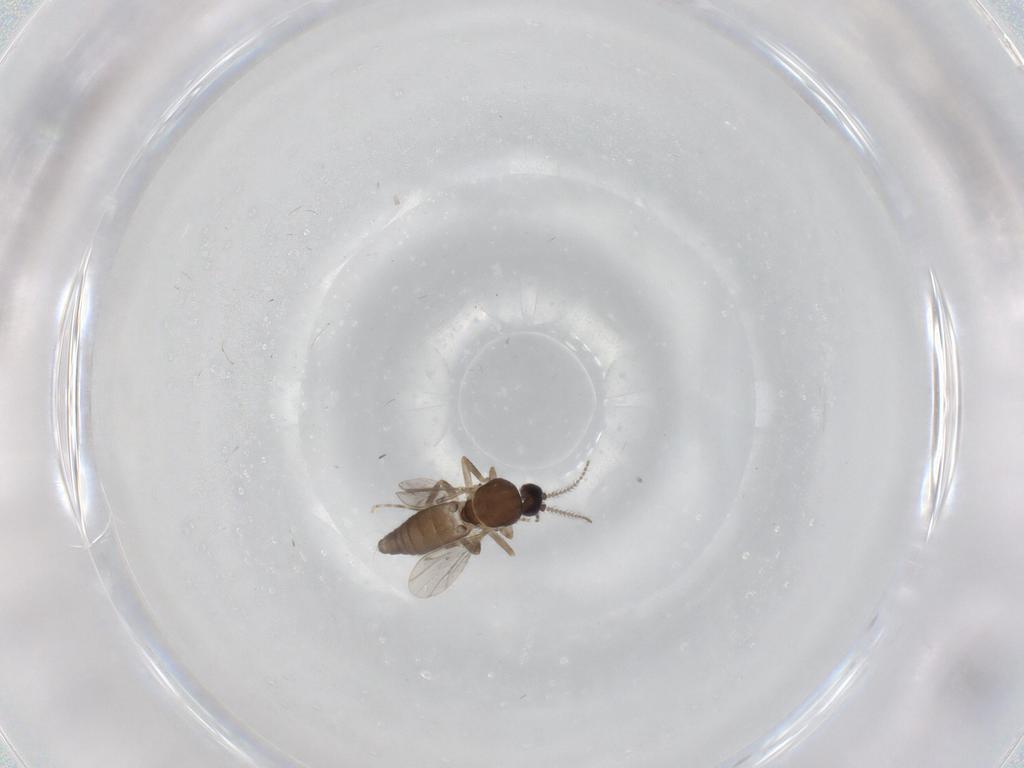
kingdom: Animalia
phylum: Arthropoda
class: Insecta
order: Diptera
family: Ceratopogonidae
